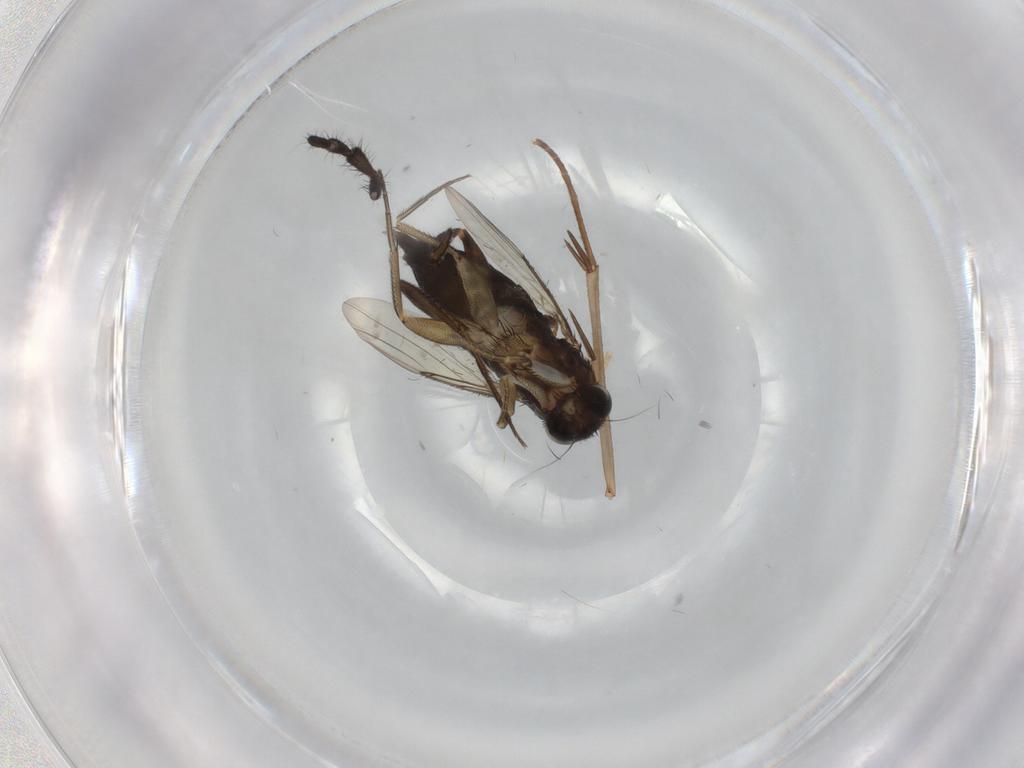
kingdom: Animalia
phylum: Arthropoda
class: Insecta
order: Diptera
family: Phoridae
